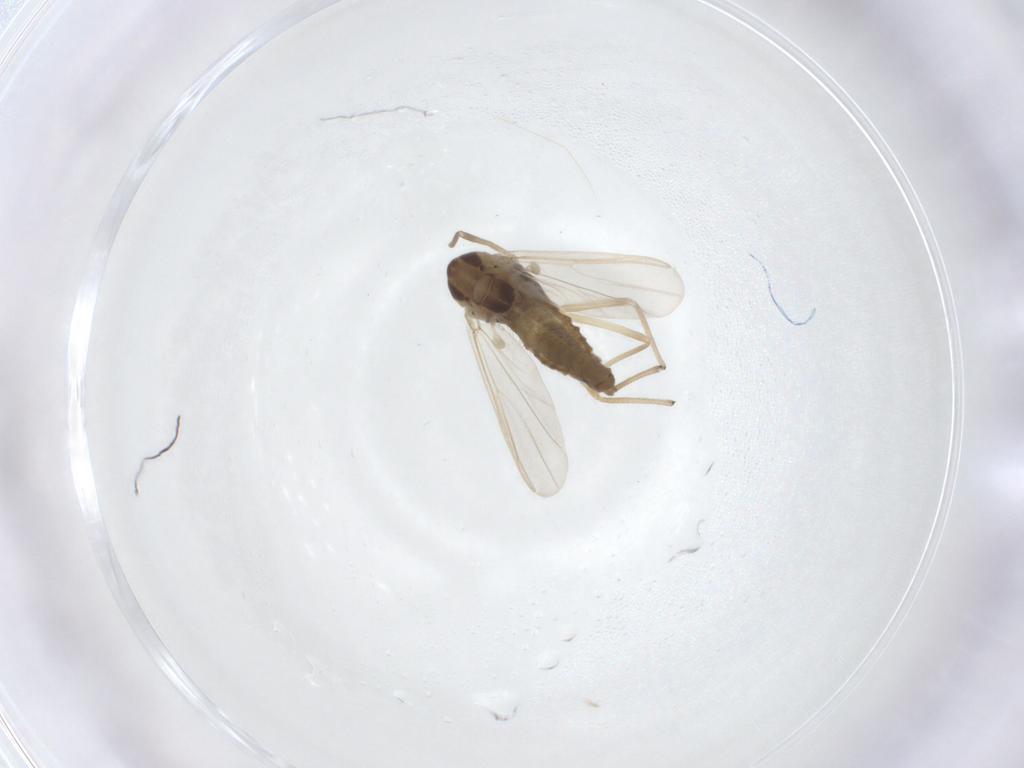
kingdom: Animalia
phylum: Arthropoda
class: Insecta
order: Diptera
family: Chironomidae
